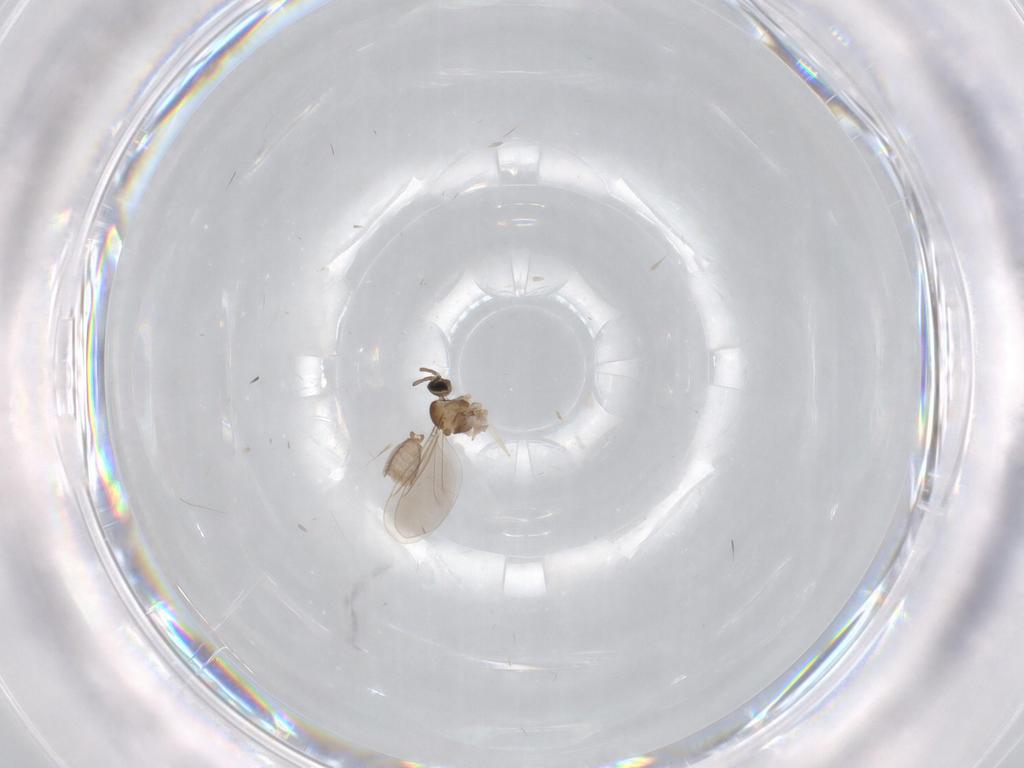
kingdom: Animalia
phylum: Arthropoda
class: Insecta
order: Diptera
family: Cecidomyiidae
